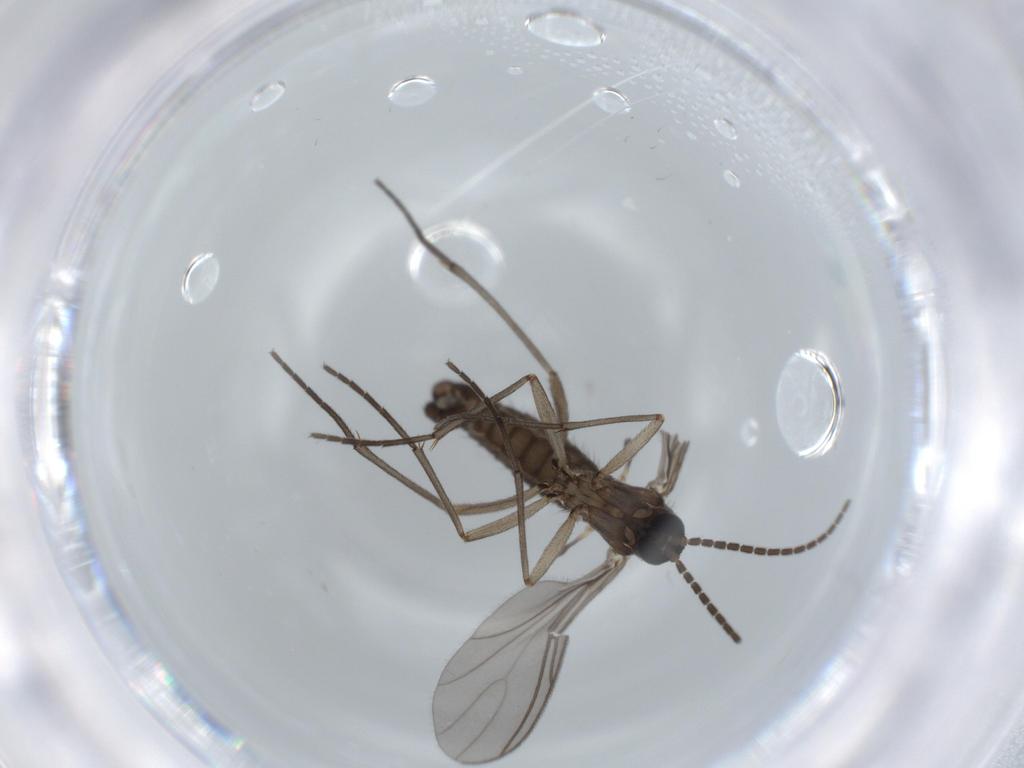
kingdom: Animalia
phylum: Arthropoda
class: Insecta
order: Diptera
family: Sciaridae
